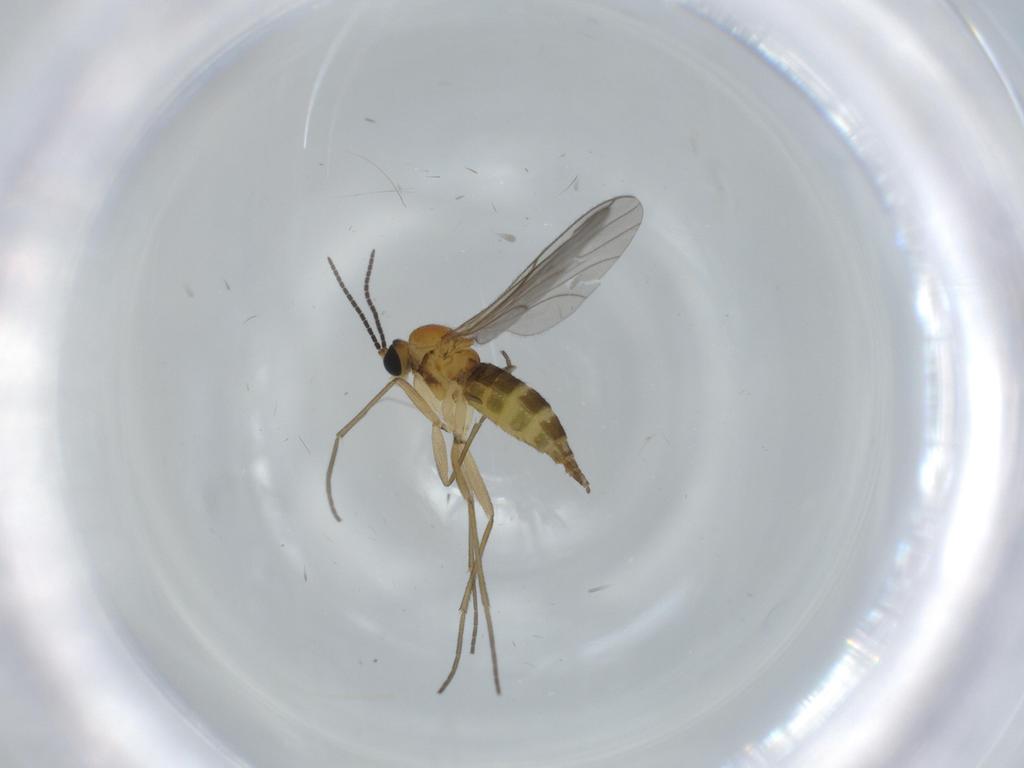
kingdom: Animalia
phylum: Arthropoda
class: Insecta
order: Diptera
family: Sciaridae
